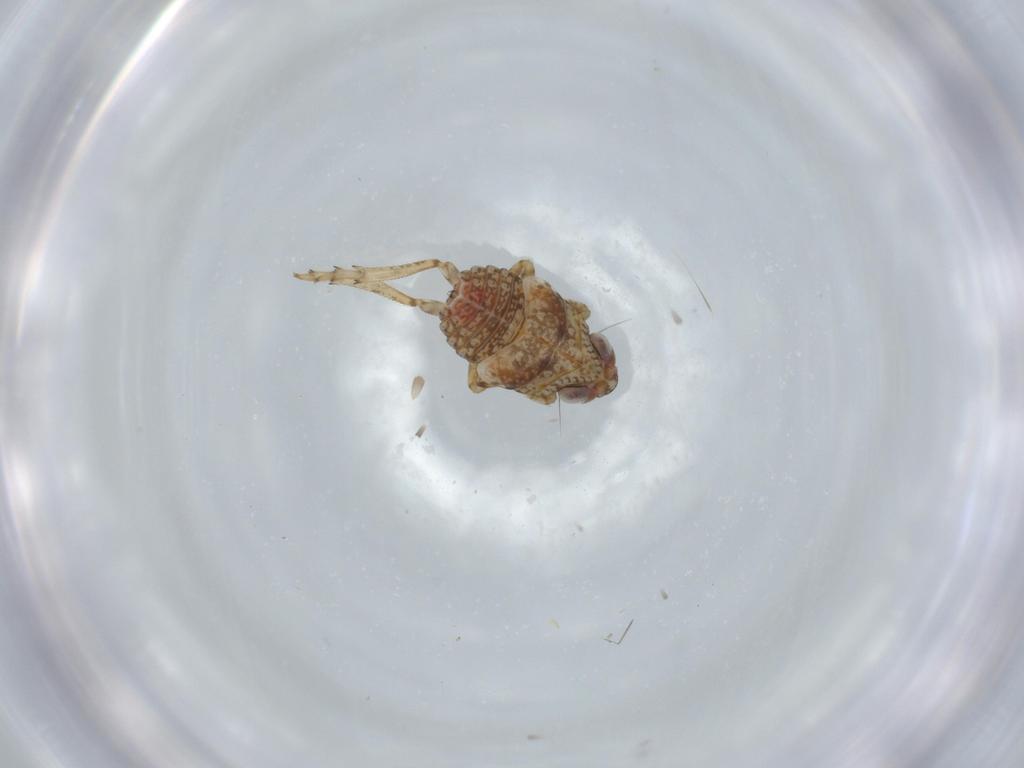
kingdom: Animalia
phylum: Arthropoda
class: Insecta
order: Hemiptera
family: Issidae
